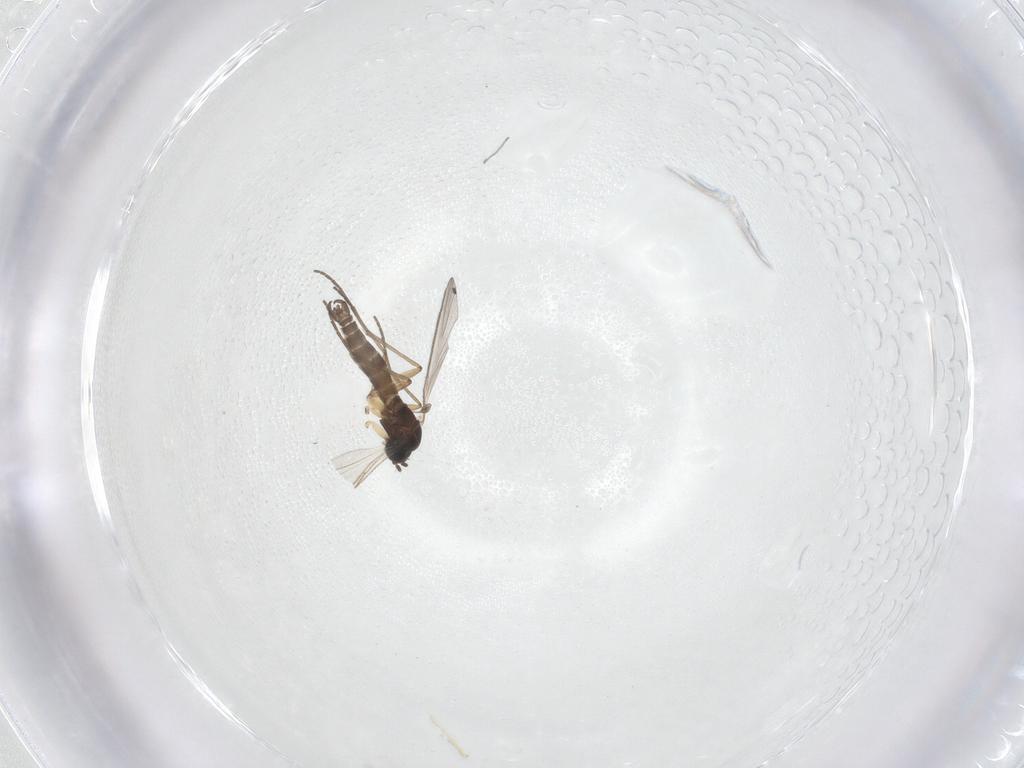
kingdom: Animalia
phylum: Arthropoda
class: Insecta
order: Diptera
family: Sciaridae
